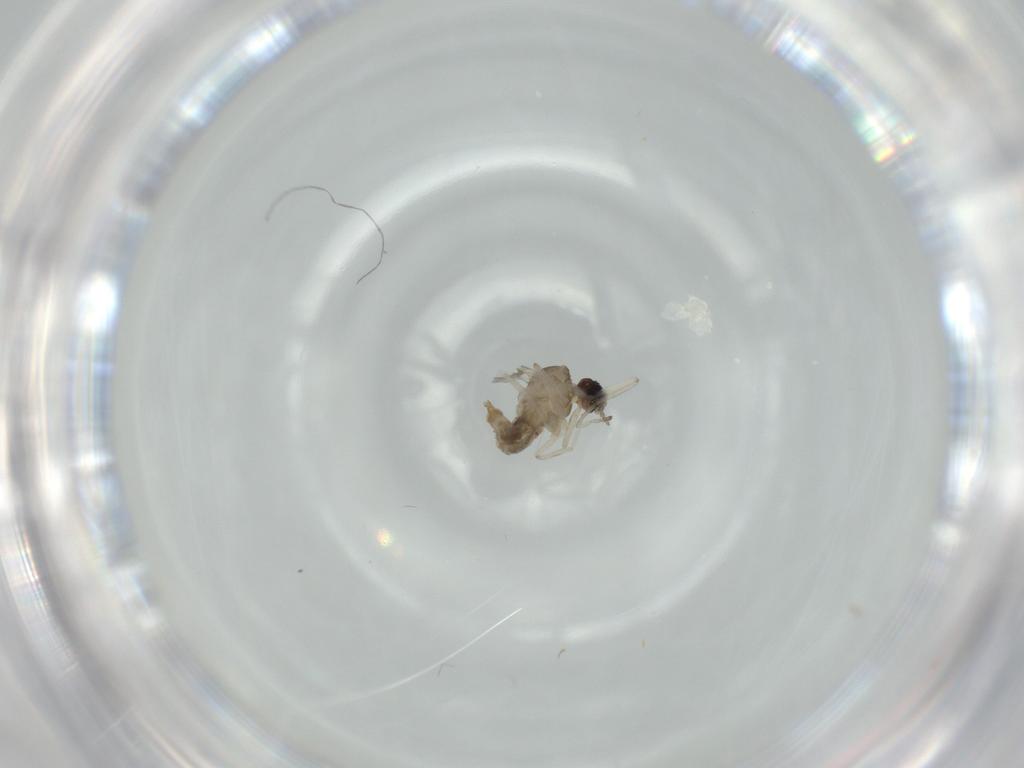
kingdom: Animalia
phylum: Arthropoda
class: Insecta
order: Diptera
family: Cecidomyiidae
